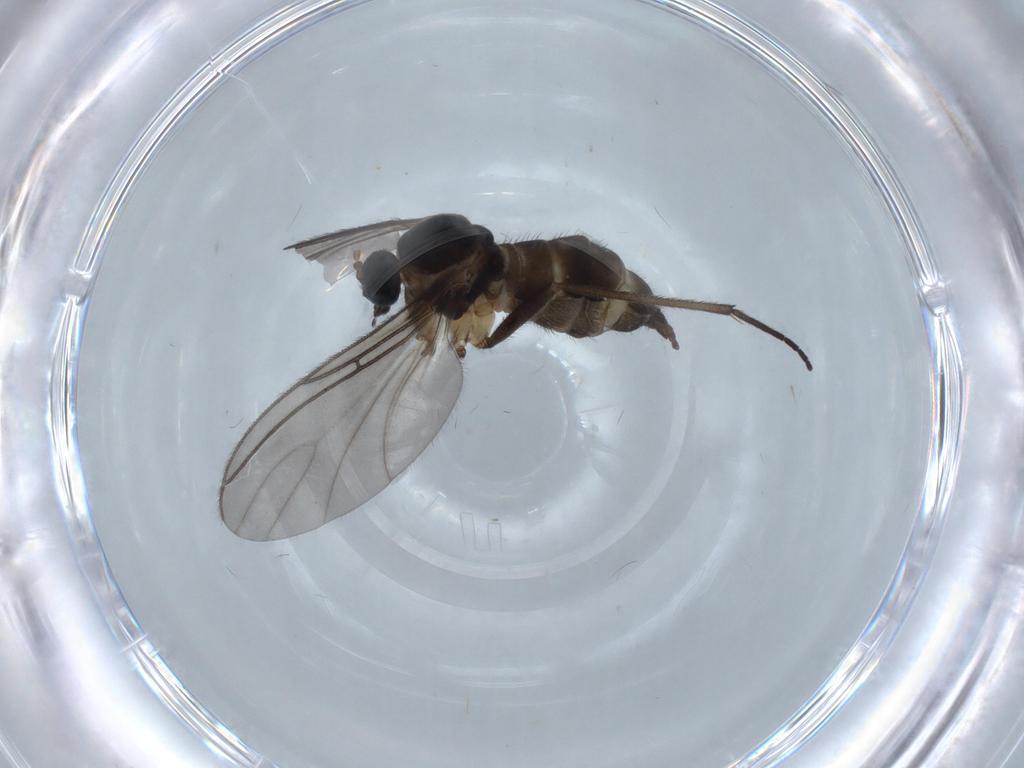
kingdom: Animalia
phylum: Arthropoda
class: Insecta
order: Diptera
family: Sciaridae
